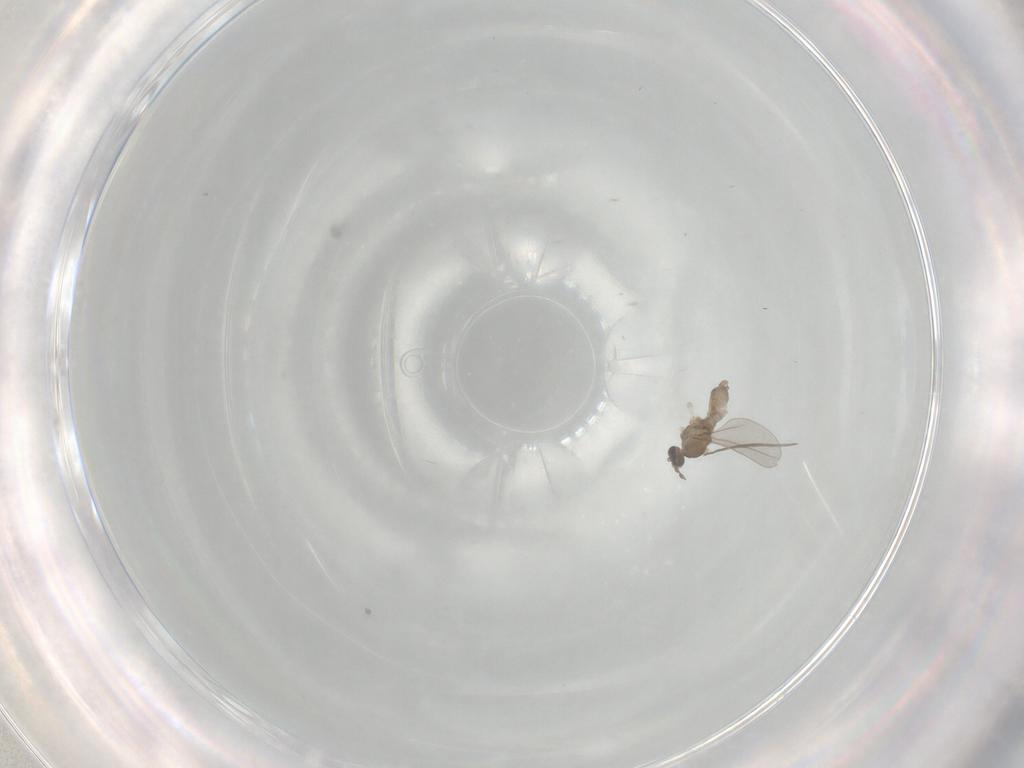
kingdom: Animalia
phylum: Arthropoda
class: Insecta
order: Diptera
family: Cecidomyiidae
